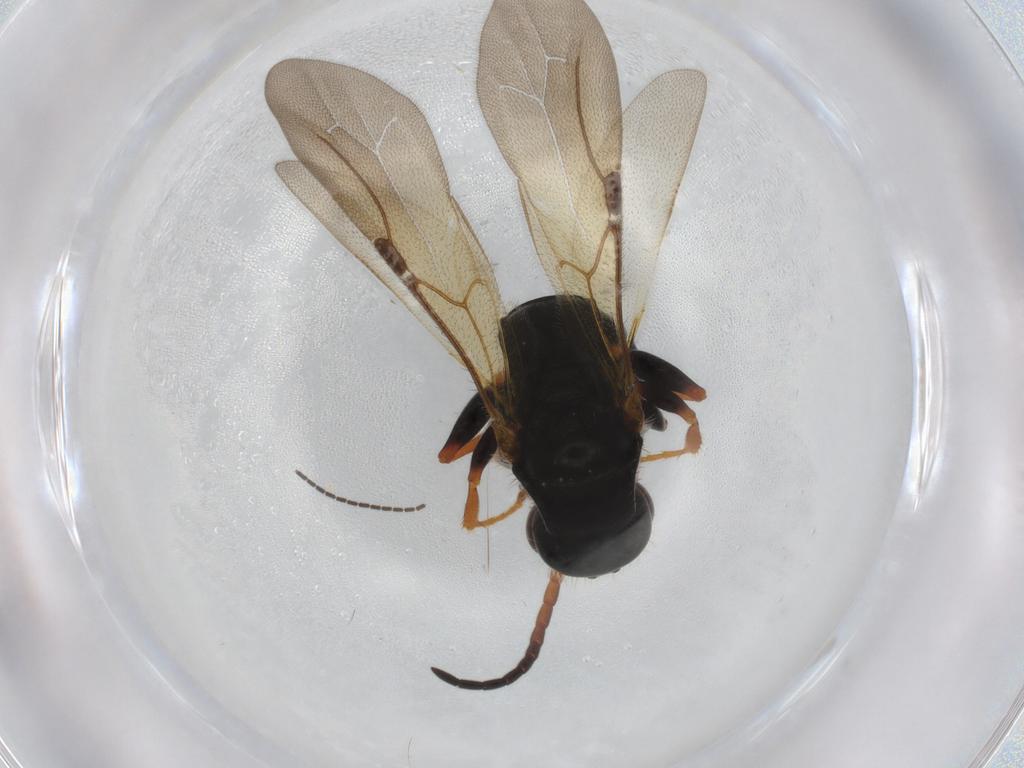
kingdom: Animalia
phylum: Arthropoda
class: Insecta
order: Hymenoptera
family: Bethylidae
